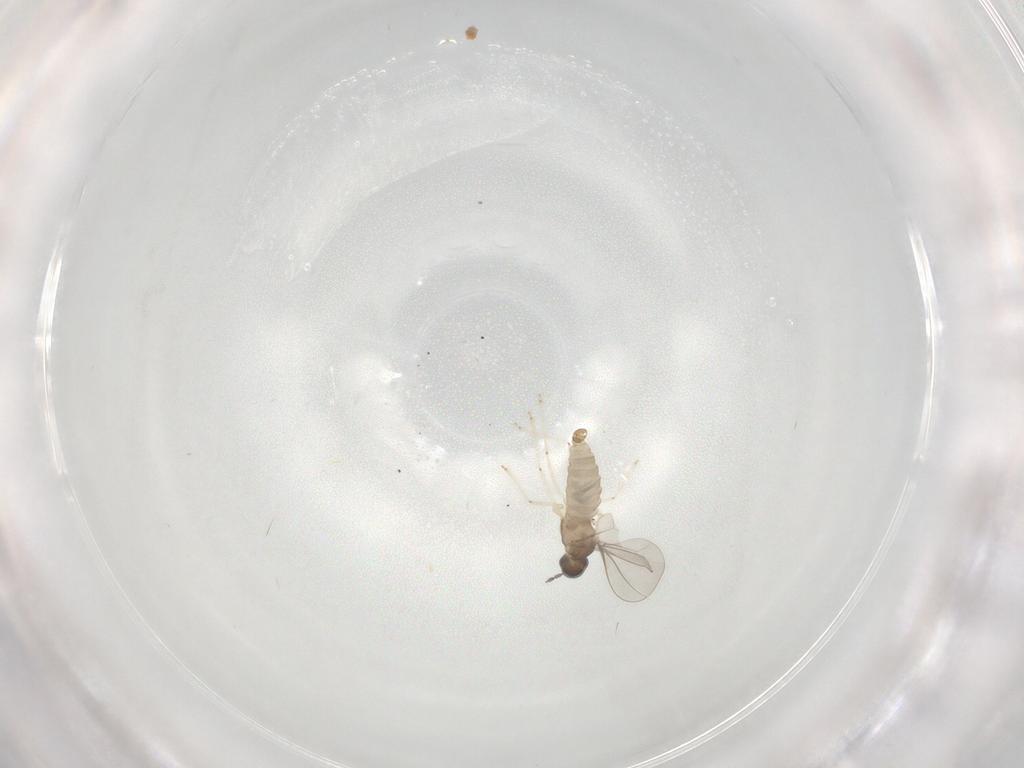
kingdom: Animalia
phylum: Arthropoda
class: Insecta
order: Diptera
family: Cecidomyiidae
